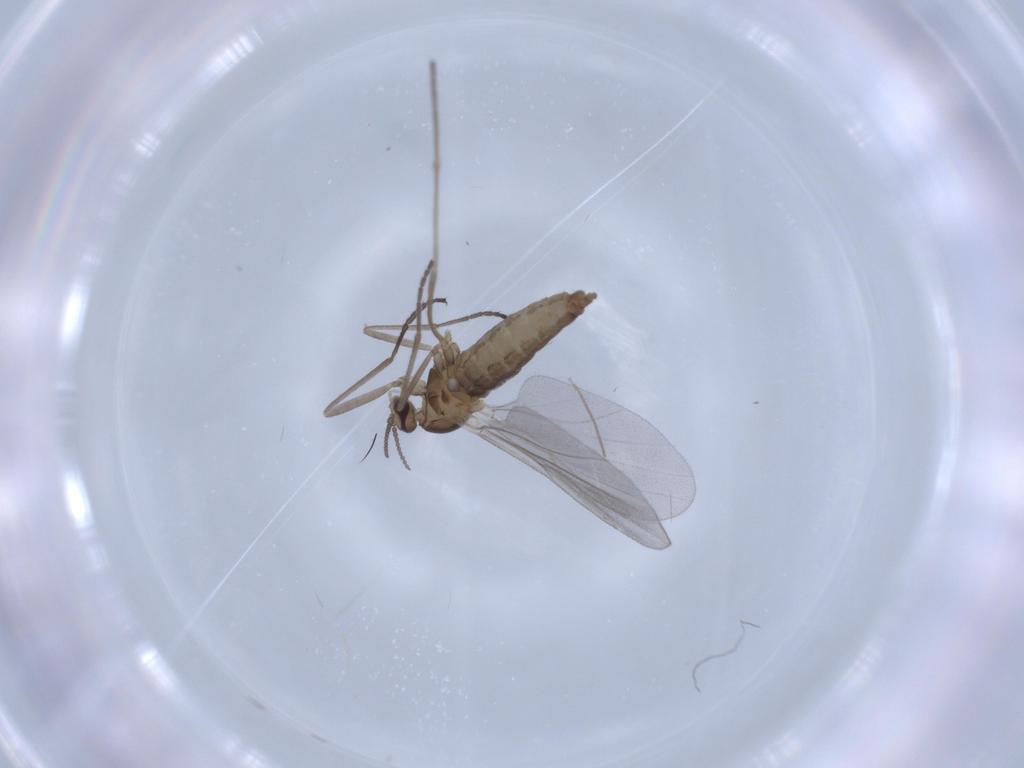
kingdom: Animalia
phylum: Arthropoda
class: Insecta
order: Diptera
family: Cecidomyiidae
